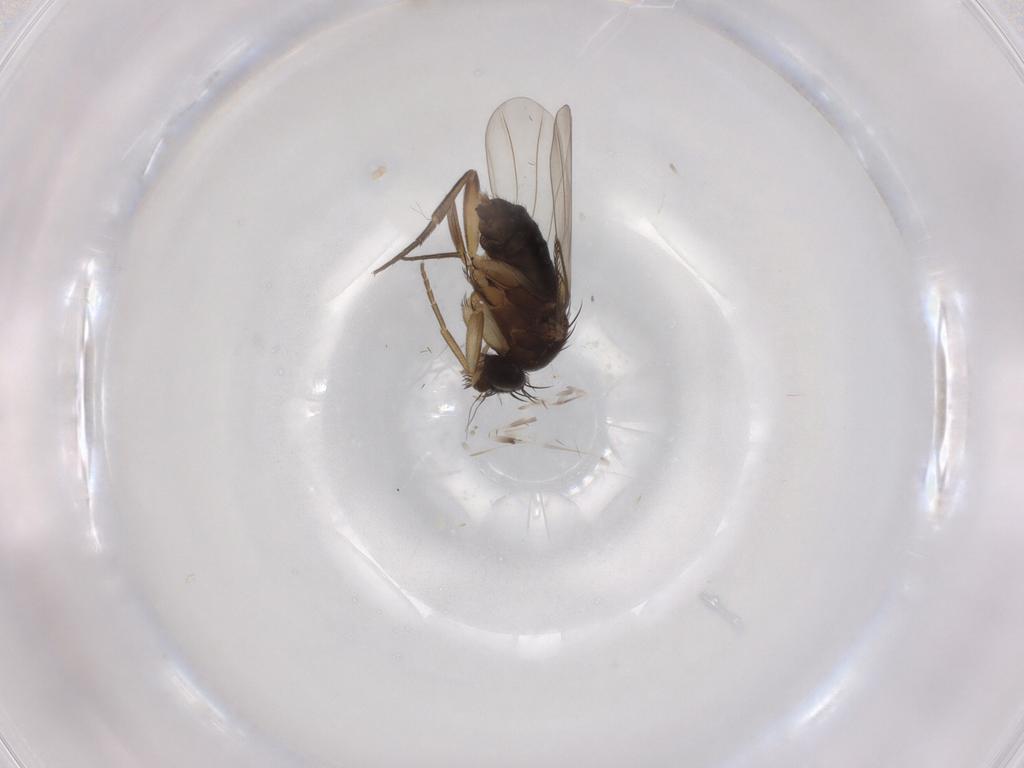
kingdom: Animalia
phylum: Arthropoda
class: Insecta
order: Diptera
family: Phoridae
